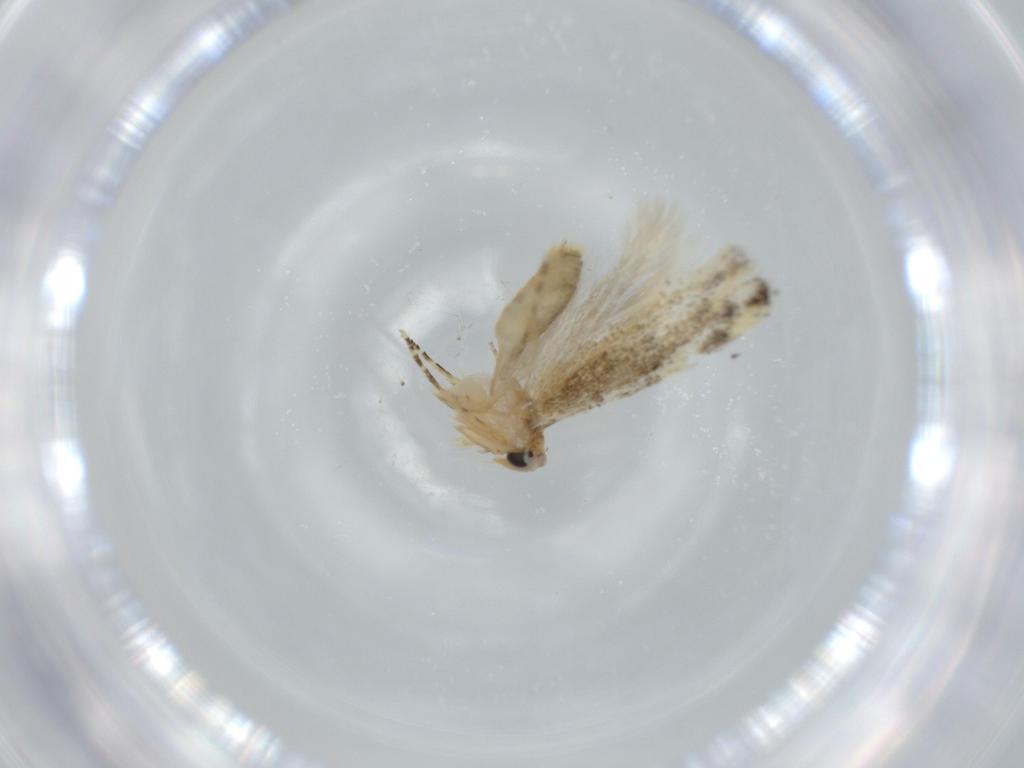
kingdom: Animalia
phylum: Arthropoda
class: Insecta
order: Lepidoptera
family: Bucculatricidae
